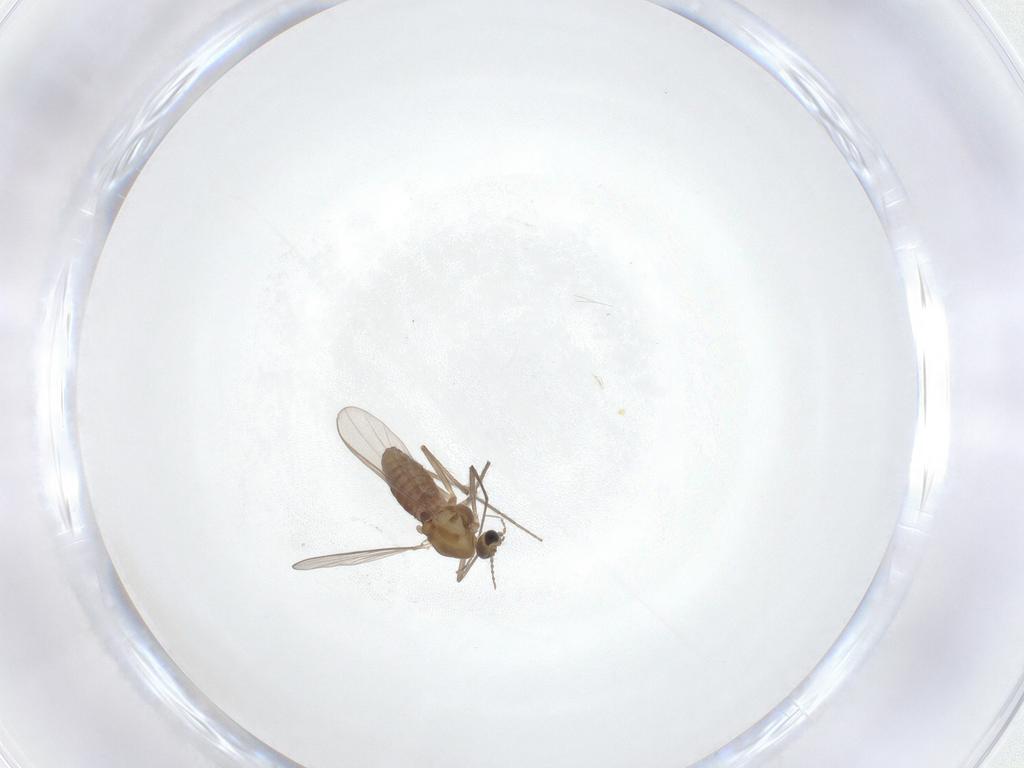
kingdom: Animalia
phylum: Arthropoda
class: Insecta
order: Diptera
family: Chironomidae
